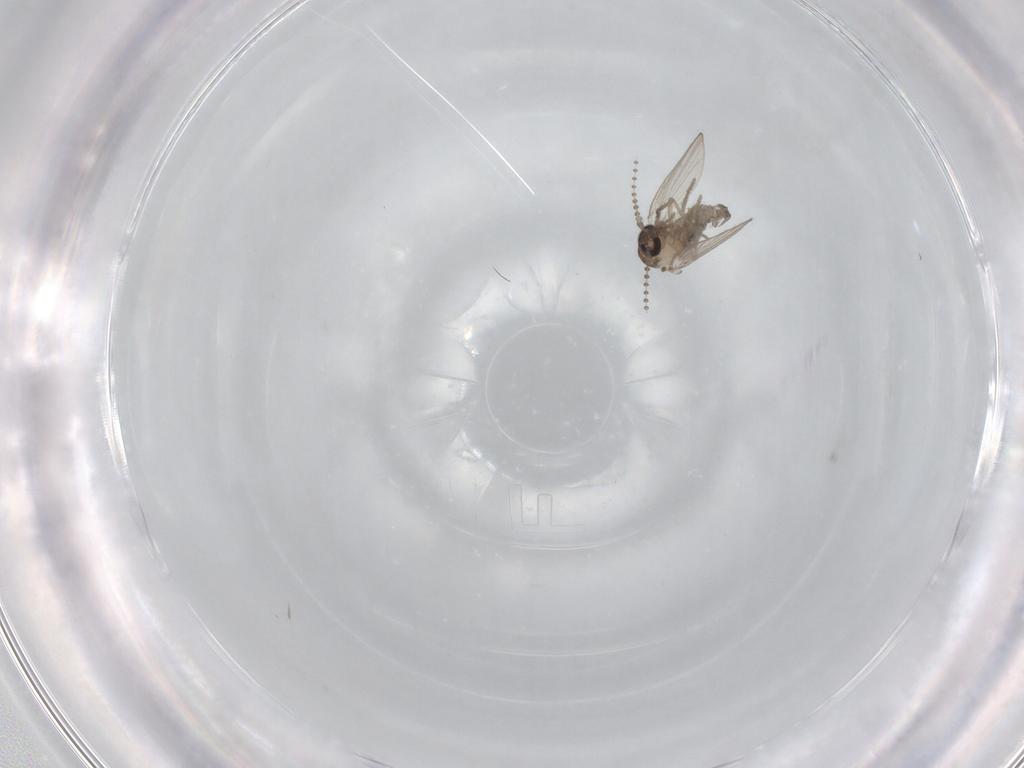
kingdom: Animalia
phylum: Arthropoda
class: Insecta
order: Diptera
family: Psychodidae
